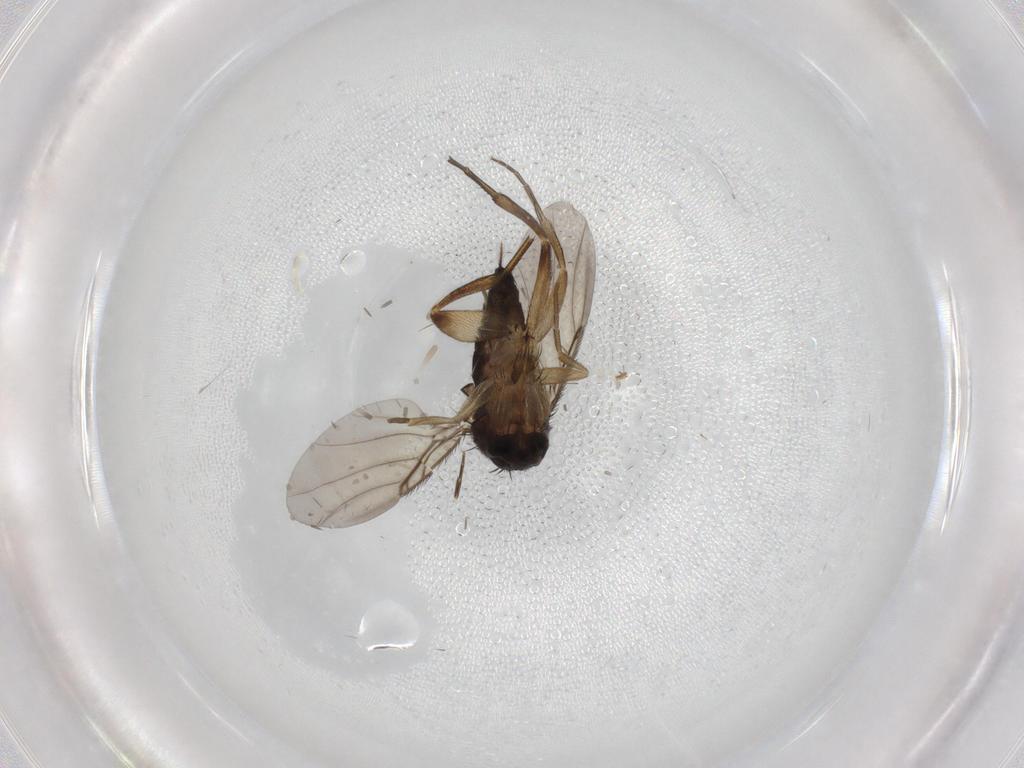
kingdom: Animalia
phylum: Arthropoda
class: Insecta
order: Diptera
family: Phoridae
